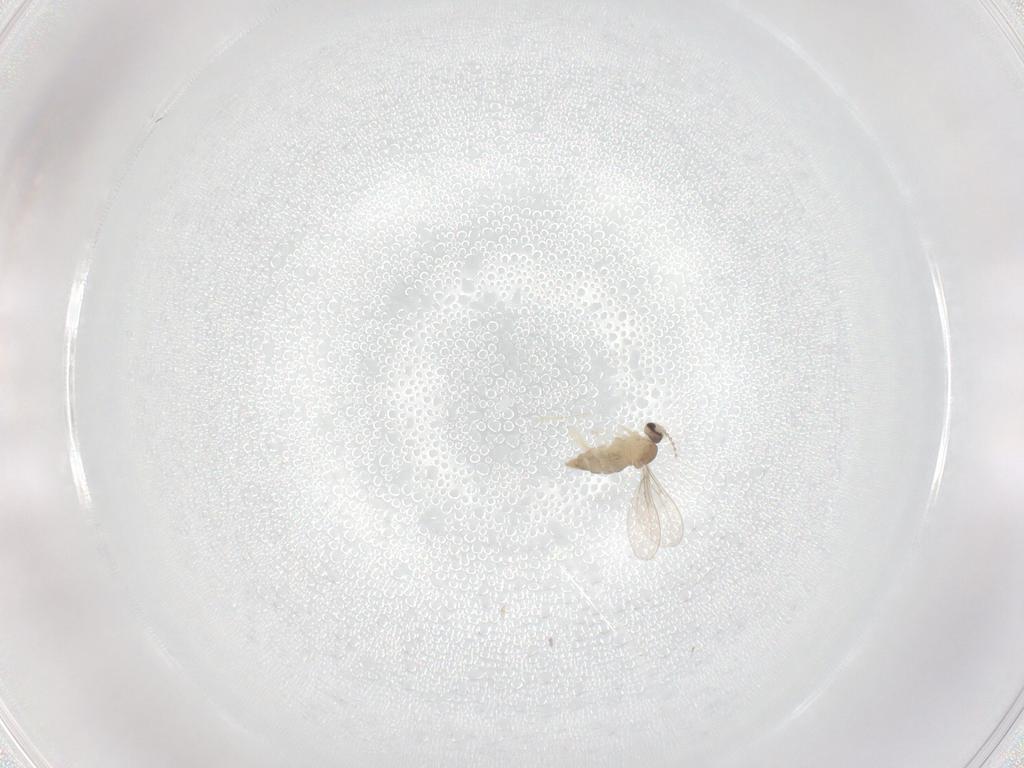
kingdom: Animalia
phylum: Arthropoda
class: Insecta
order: Diptera
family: Cecidomyiidae
